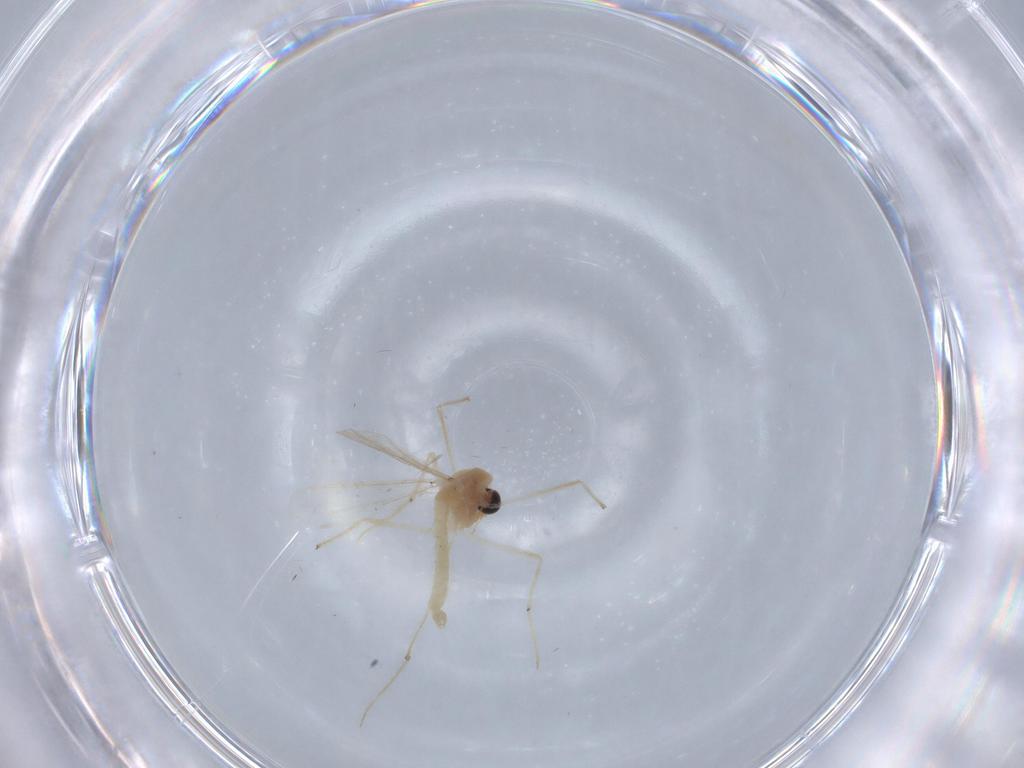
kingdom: Animalia
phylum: Arthropoda
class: Insecta
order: Diptera
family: Chironomidae
